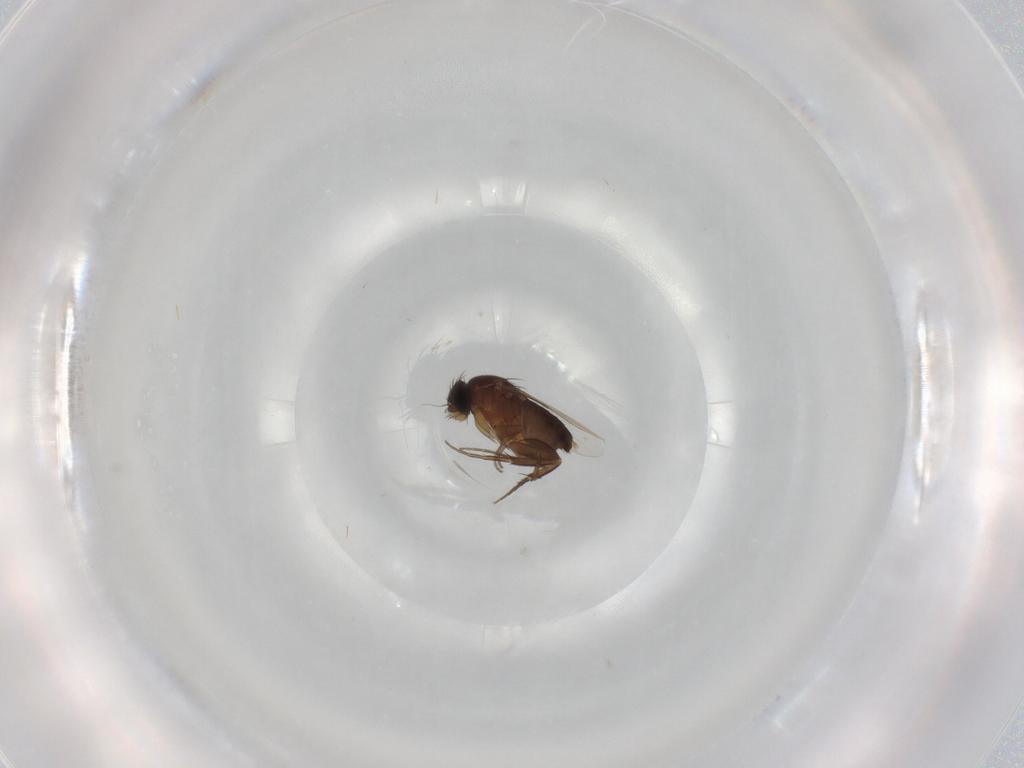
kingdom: Animalia
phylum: Arthropoda
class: Insecta
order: Diptera
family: Phoridae
